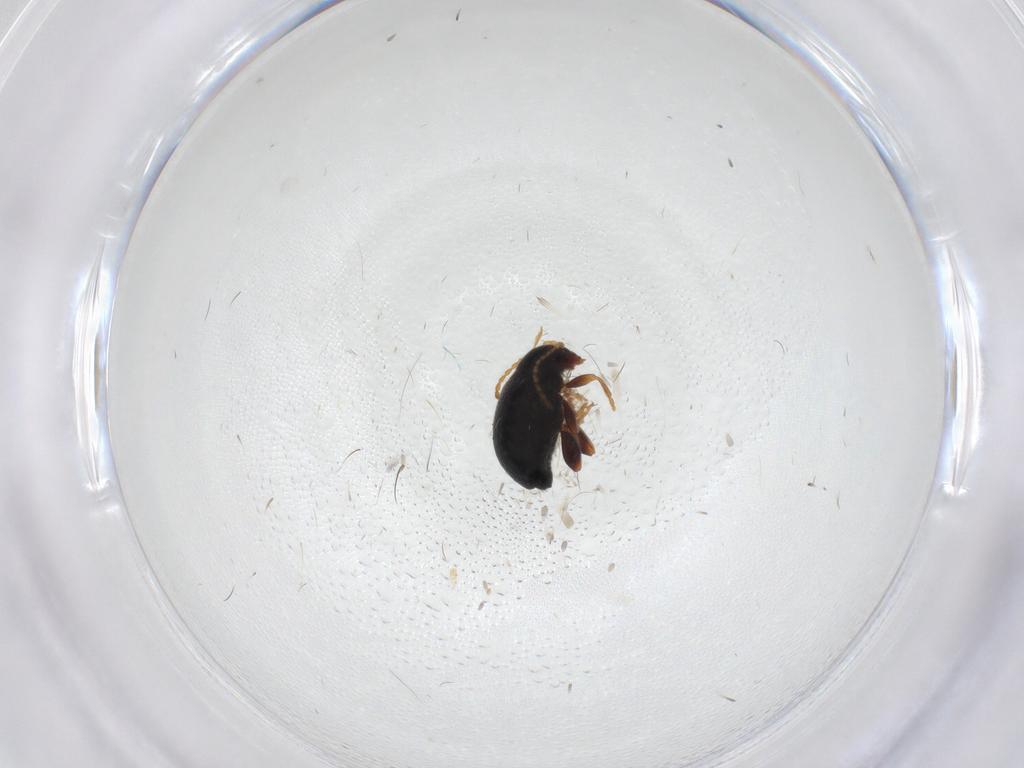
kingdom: Animalia
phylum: Arthropoda
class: Insecta
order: Coleoptera
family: Chrysomelidae
